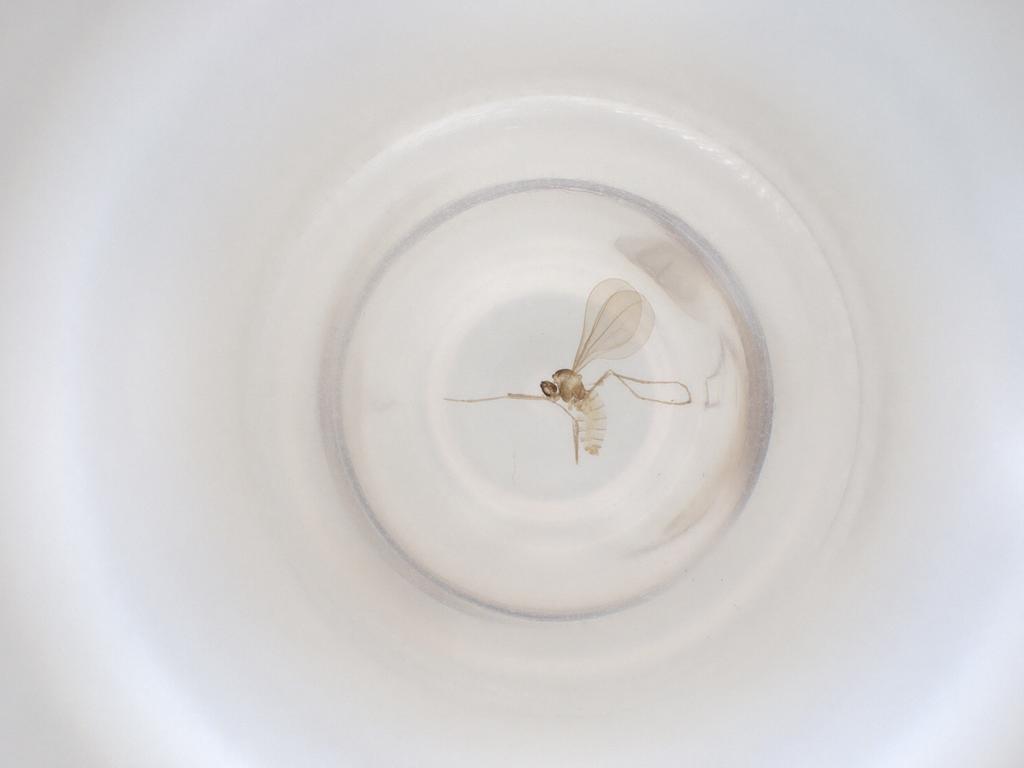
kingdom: Animalia
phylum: Arthropoda
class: Insecta
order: Diptera
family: Cecidomyiidae
